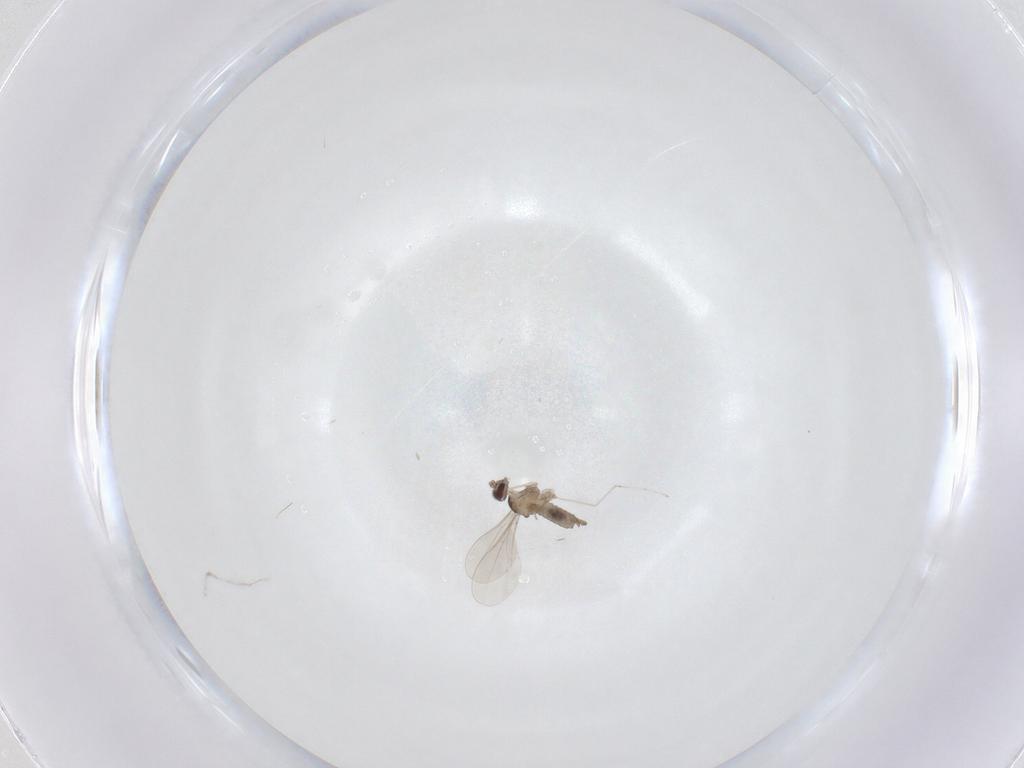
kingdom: Animalia
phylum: Arthropoda
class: Insecta
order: Diptera
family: Cecidomyiidae
